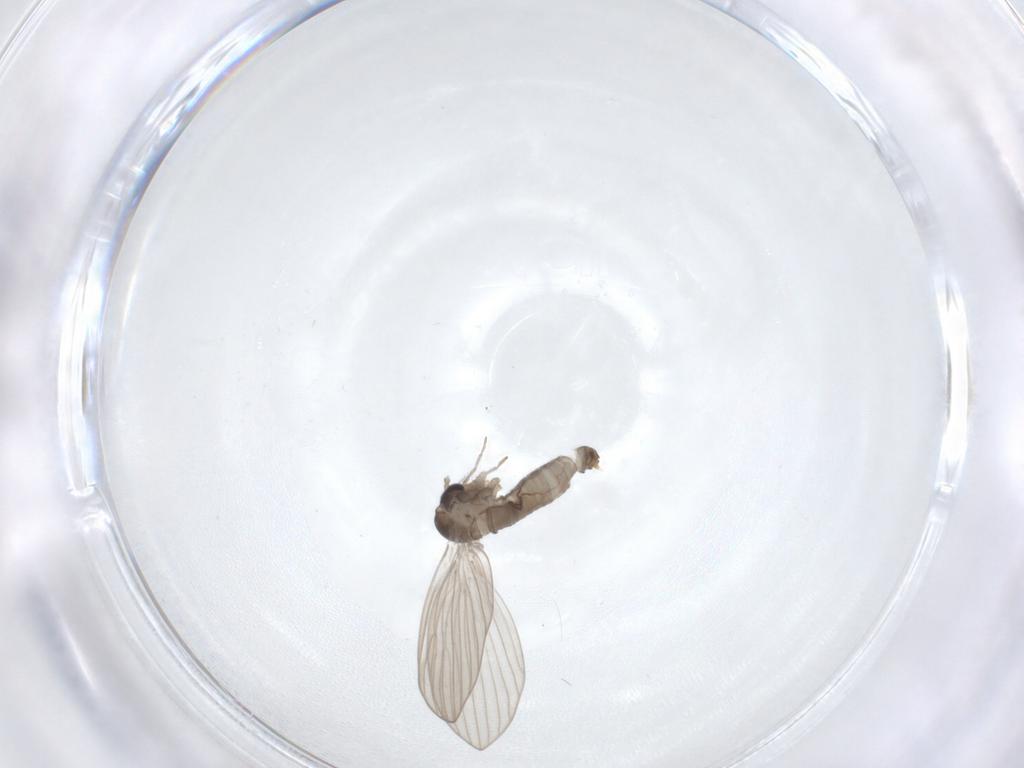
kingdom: Animalia
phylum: Arthropoda
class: Insecta
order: Diptera
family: Psychodidae
